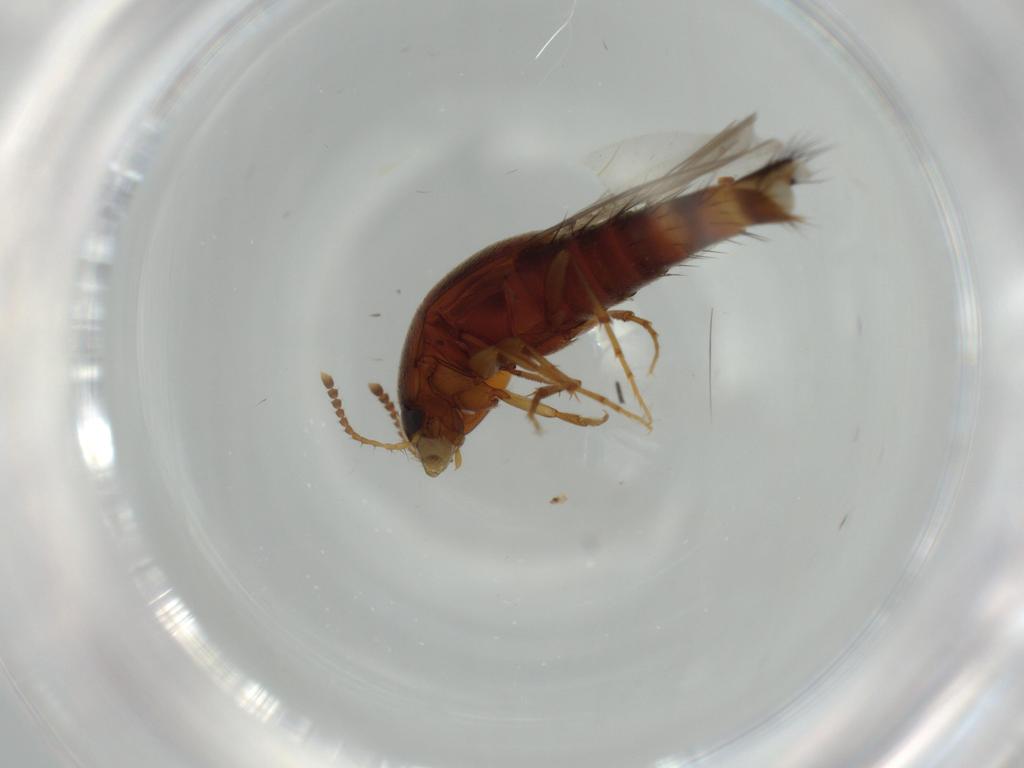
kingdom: Animalia
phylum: Arthropoda
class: Insecta
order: Coleoptera
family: Staphylinidae
